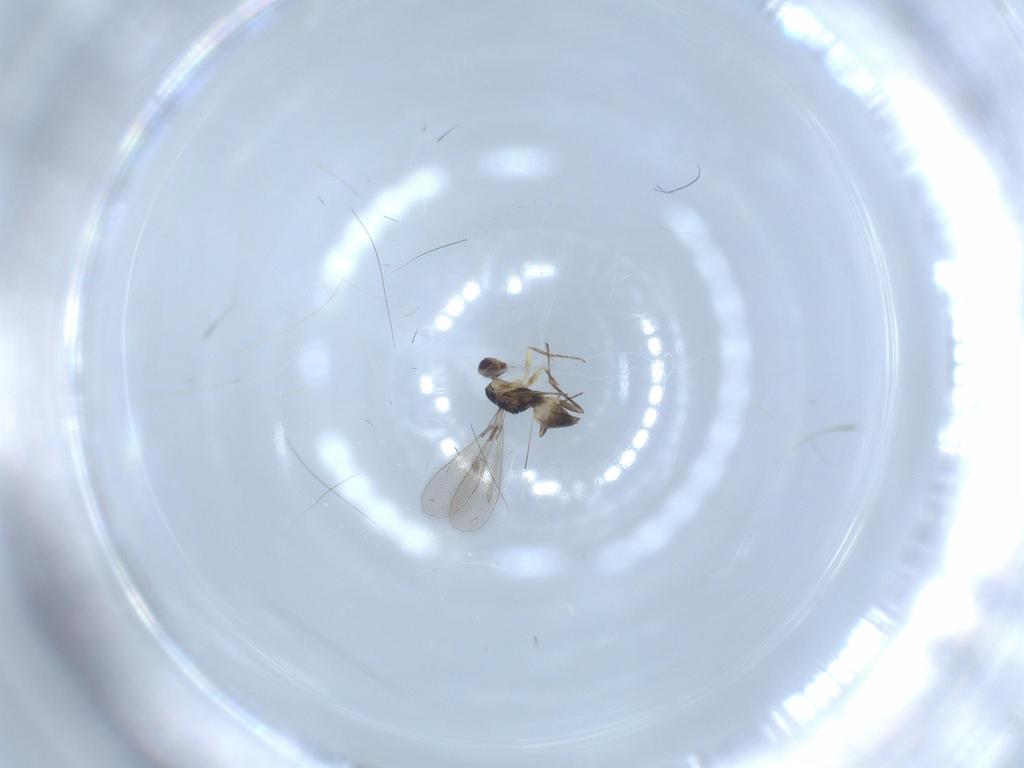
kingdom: Animalia
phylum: Arthropoda
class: Insecta
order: Hymenoptera
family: Mymaridae
